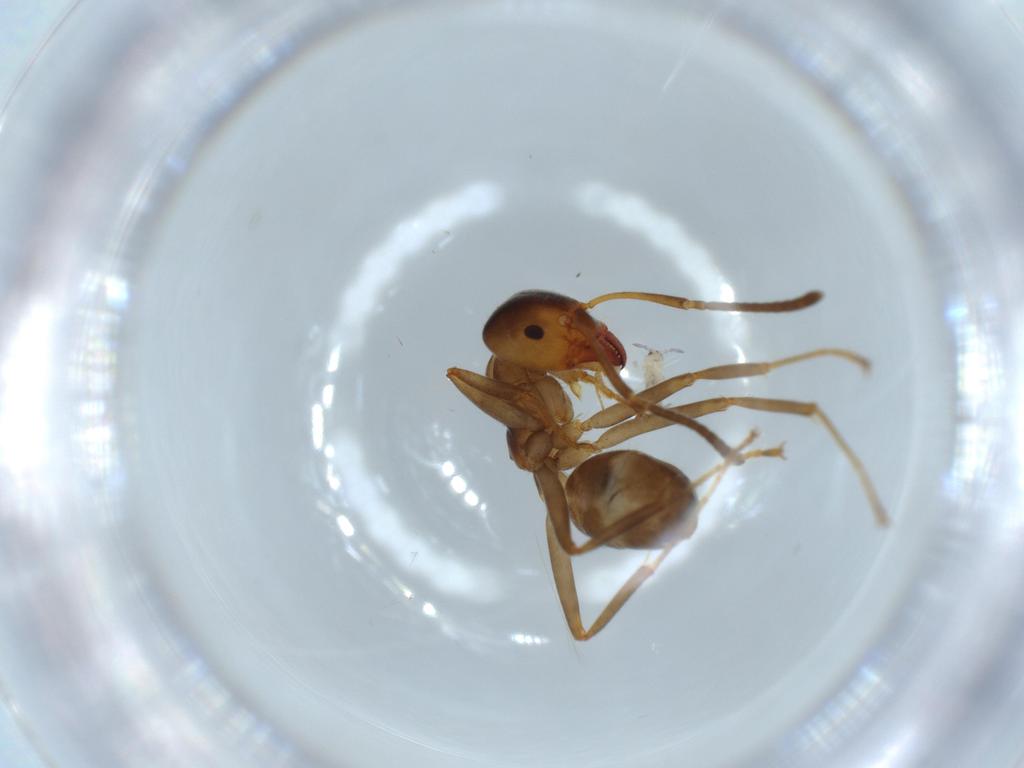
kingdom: Animalia
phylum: Arthropoda
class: Insecta
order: Hymenoptera
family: Formicidae
